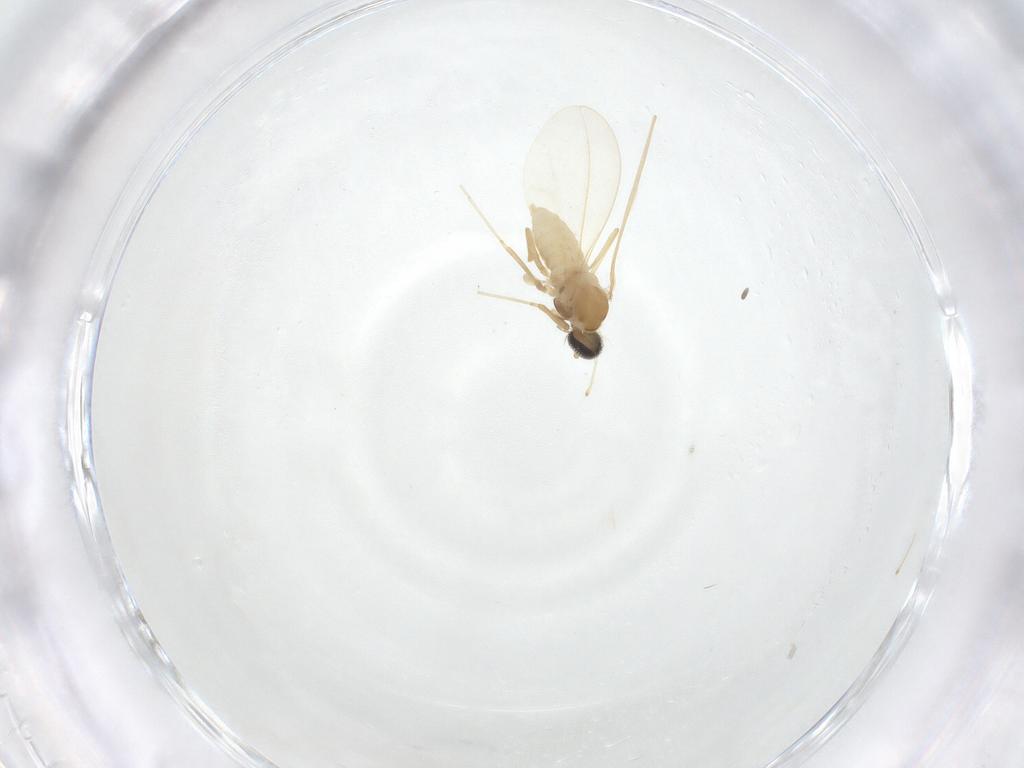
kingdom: Animalia
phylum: Arthropoda
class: Insecta
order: Diptera
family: Cecidomyiidae
